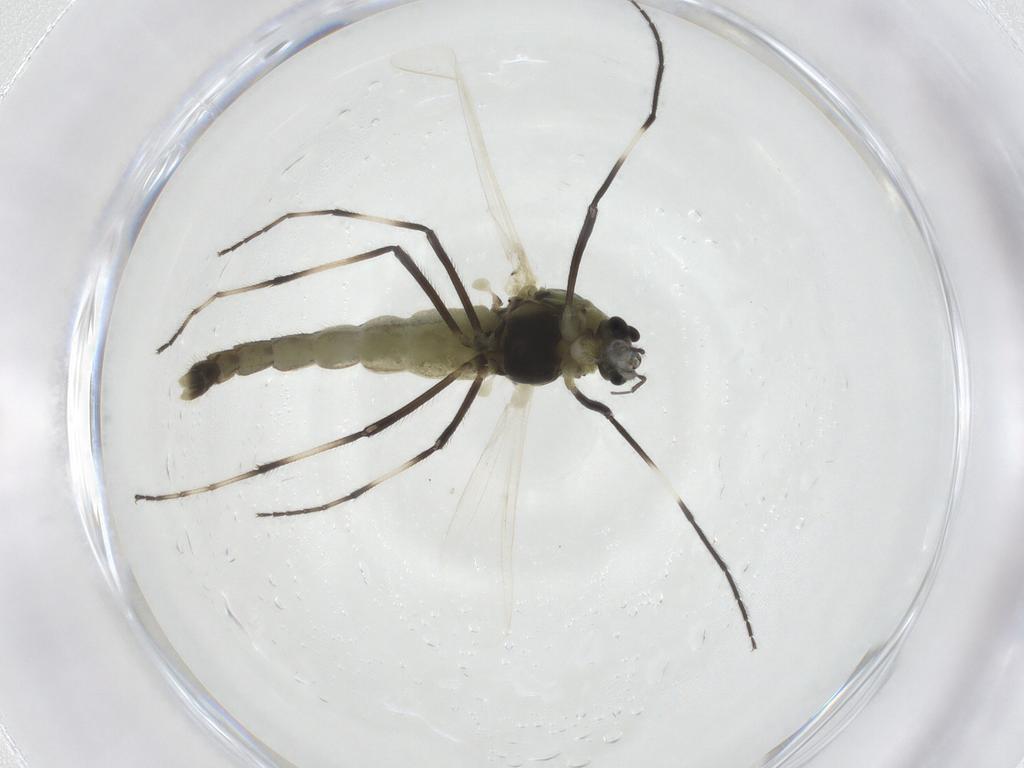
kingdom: Animalia
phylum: Arthropoda
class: Insecta
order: Diptera
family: Chironomidae
